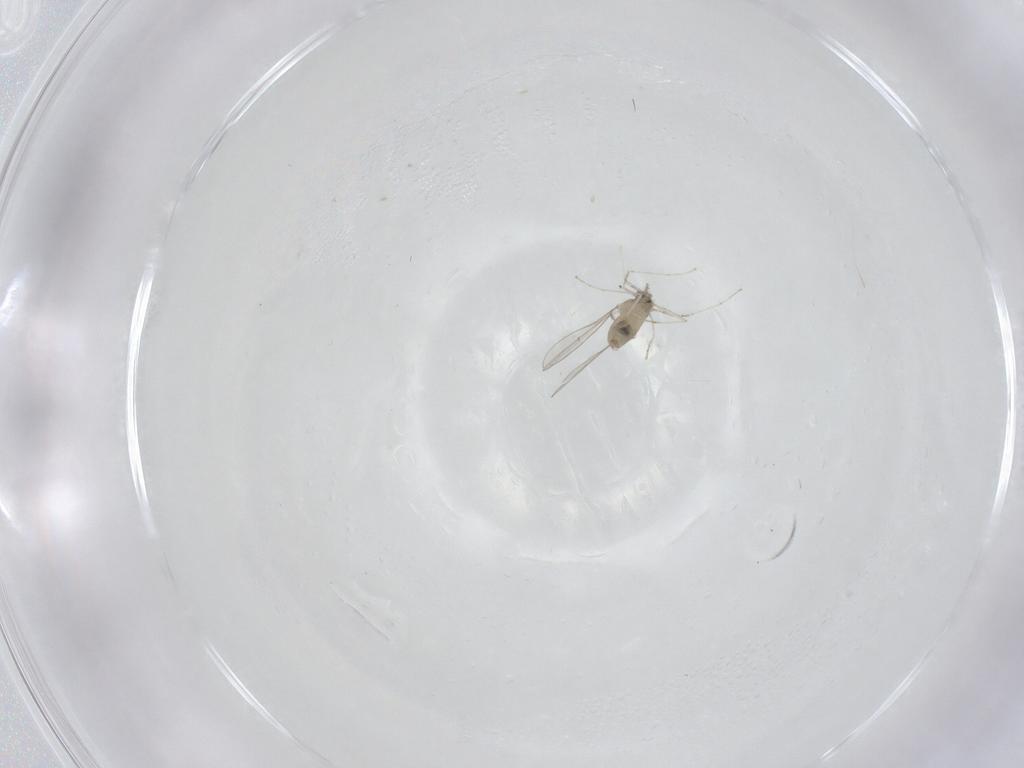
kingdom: Animalia
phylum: Arthropoda
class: Insecta
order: Diptera
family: Cecidomyiidae
